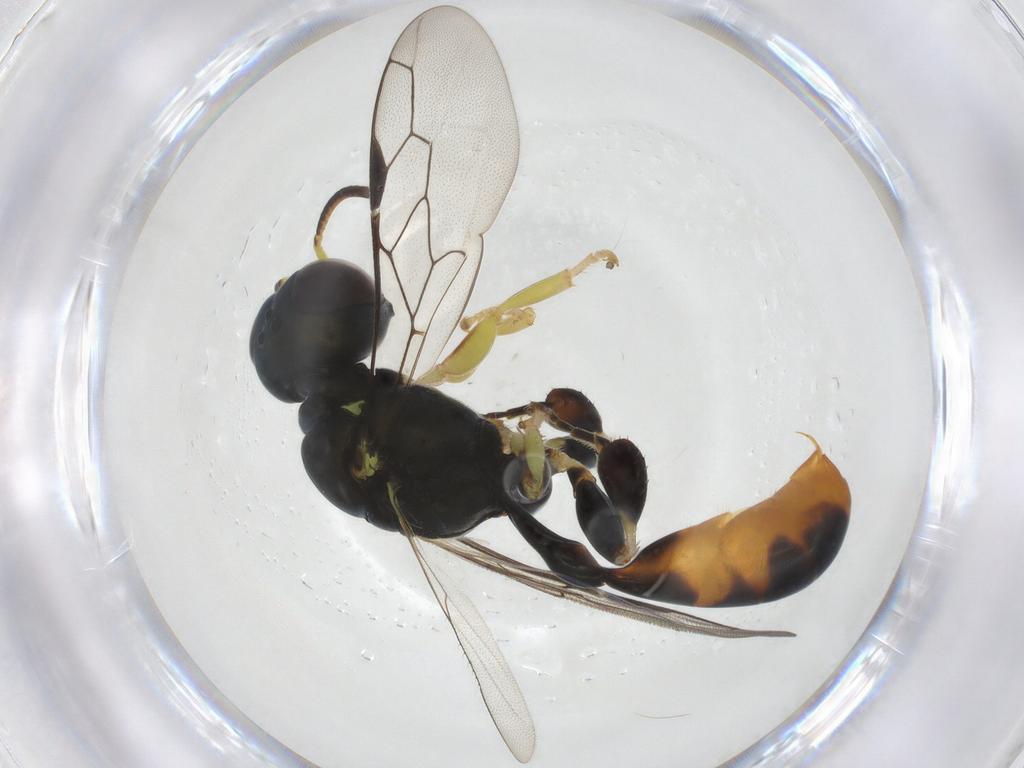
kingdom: Animalia
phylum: Arthropoda
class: Insecta
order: Hymenoptera
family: Crabronidae
